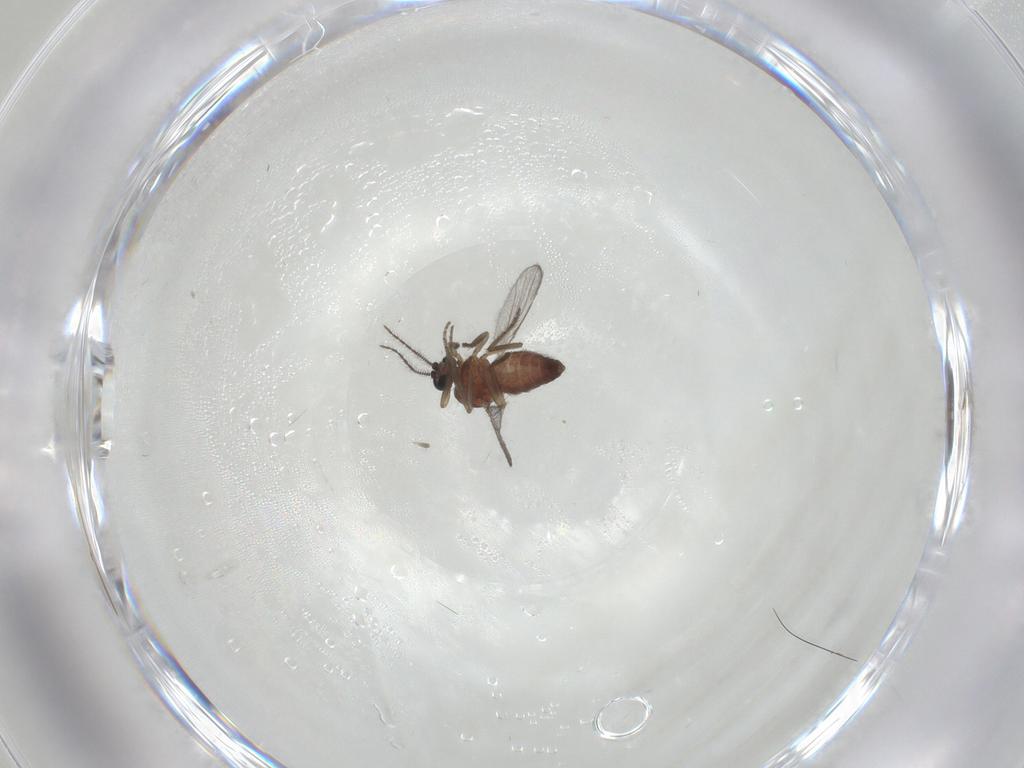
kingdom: Animalia
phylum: Arthropoda
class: Insecta
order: Diptera
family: Ceratopogonidae
